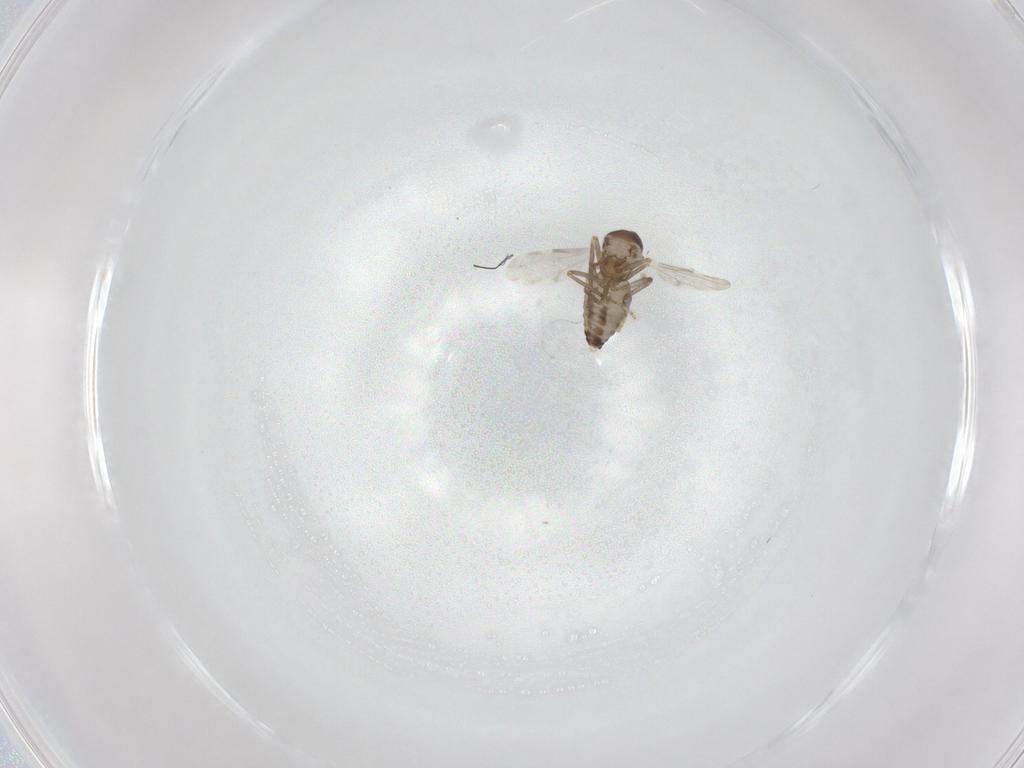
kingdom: Animalia
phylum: Arthropoda
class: Insecta
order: Diptera
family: Ceratopogonidae
